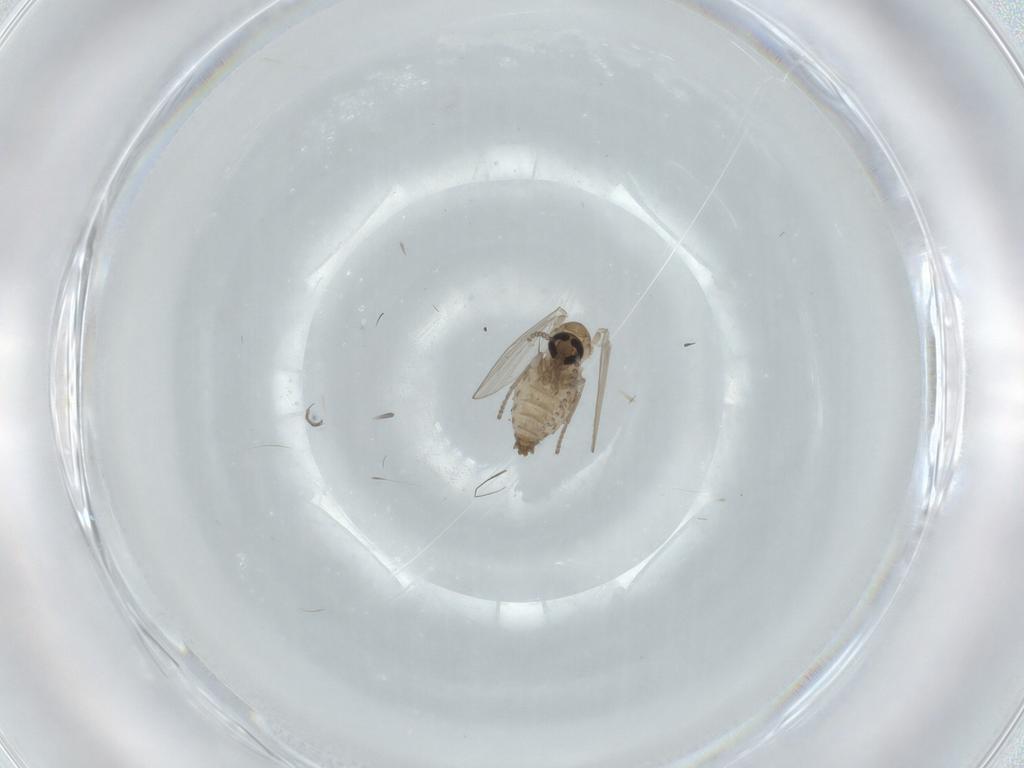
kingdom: Animalia
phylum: Arthropoda
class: Insecta
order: Diptera
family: Psychodidae
